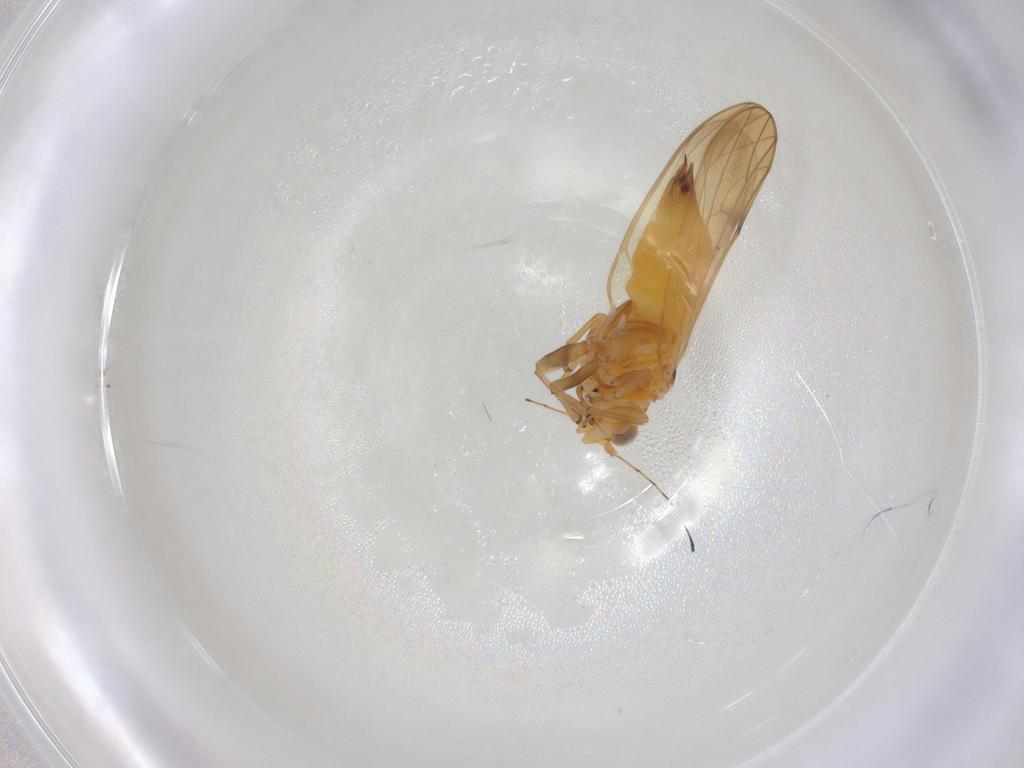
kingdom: Animalia
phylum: Arthropoda
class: Insecta
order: Hemiptera
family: Psylloidea_incertae_sedis
